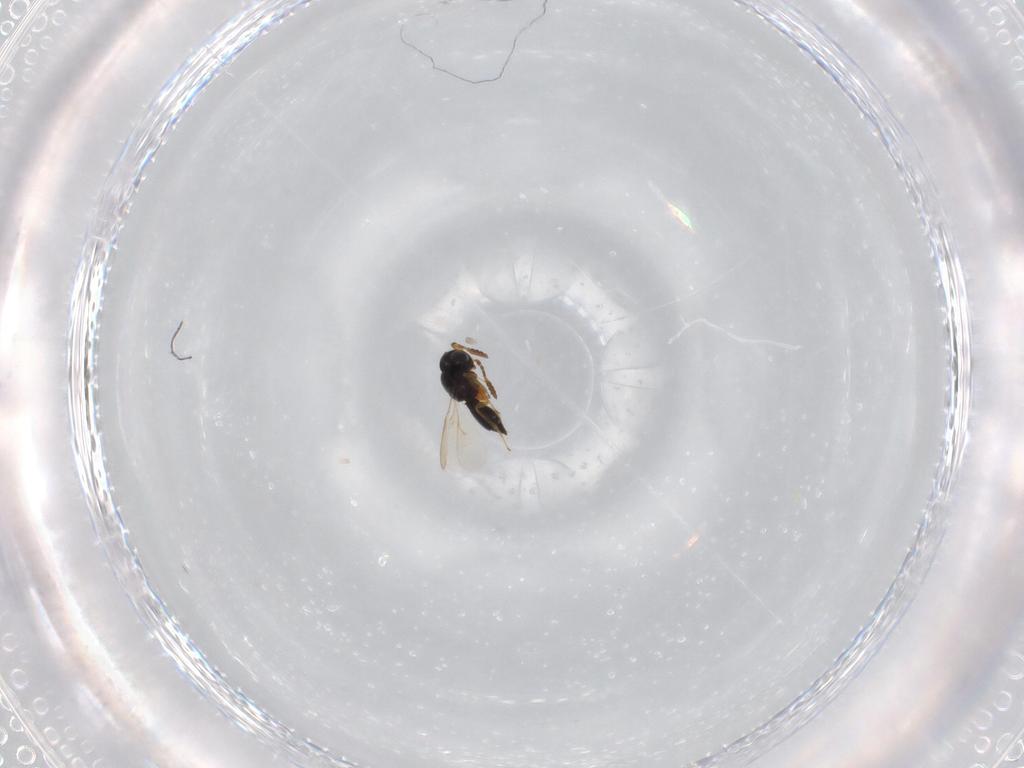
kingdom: Animalia
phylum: Arthropoda
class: Insecta
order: Hymenoptera
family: Scelionidae
